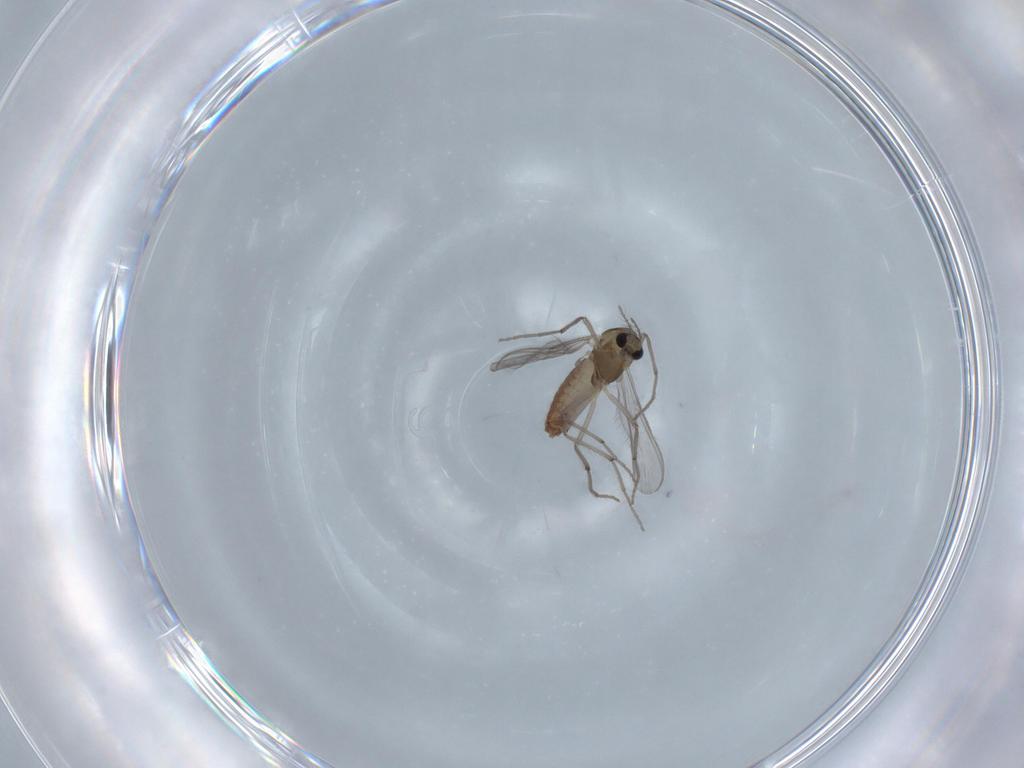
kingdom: Animalia
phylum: Arthropoda
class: Insecta
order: Diptera
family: Chironomidae
